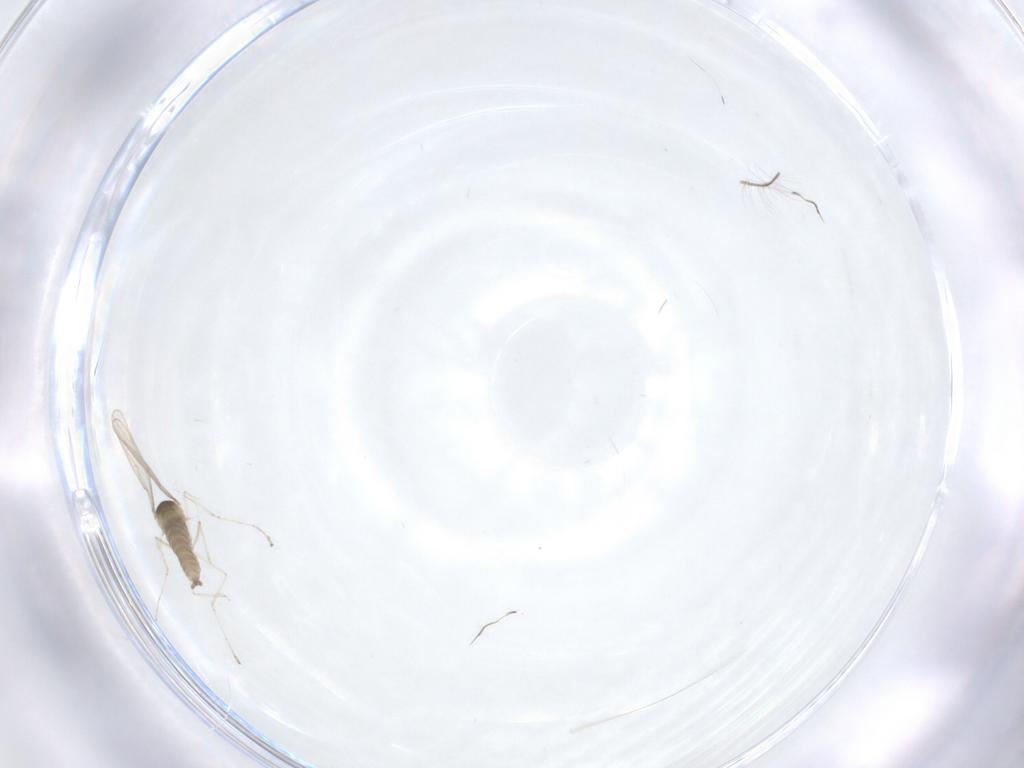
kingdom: Animalia
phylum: Arthropoda
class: Insecta
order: Diptera
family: Cecidomyiidae
